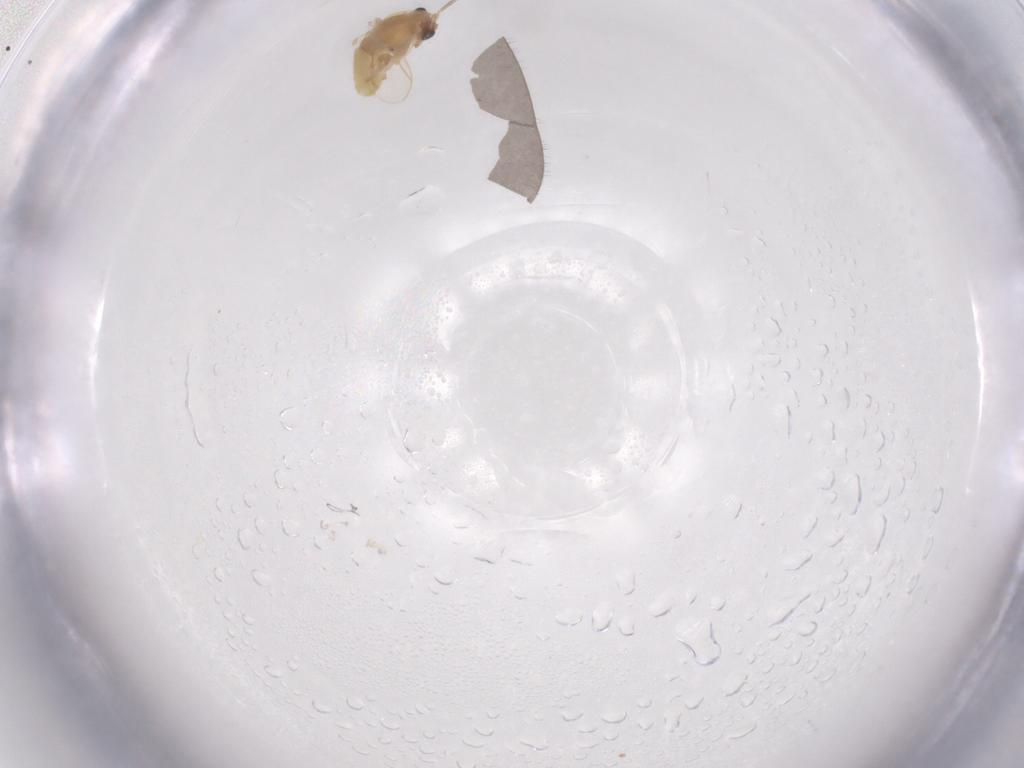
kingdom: Animalia
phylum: Arthropoda
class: Insecta
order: Diptera
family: Chironomidae
